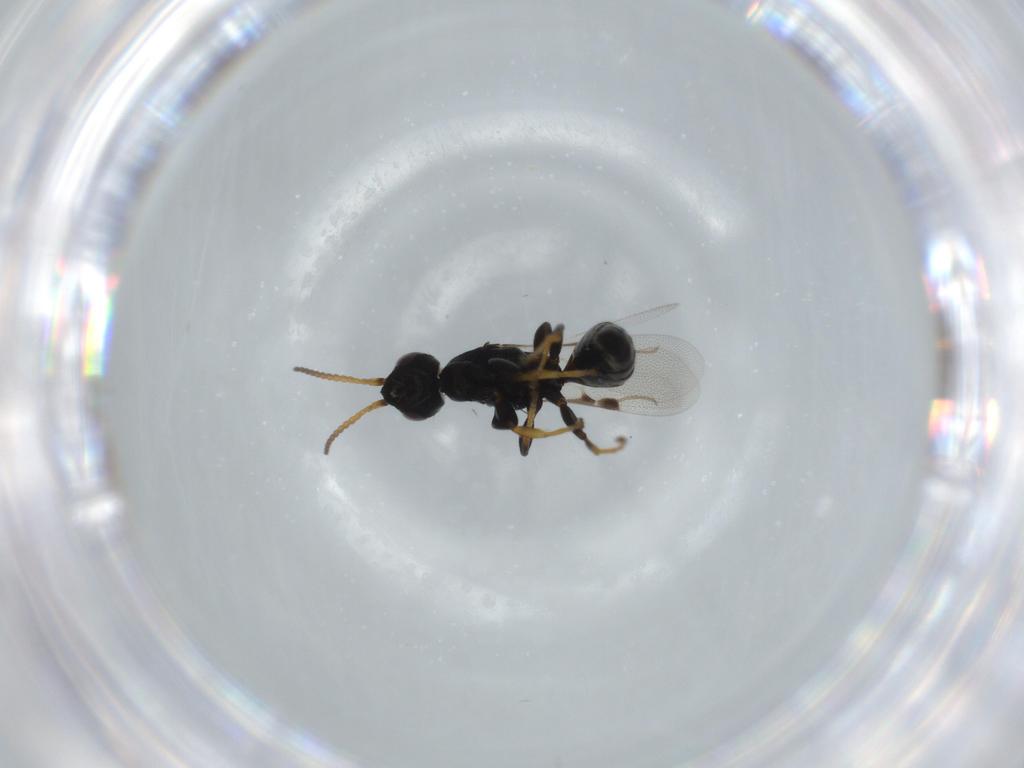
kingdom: Animalia
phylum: Arthropoda
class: Insecta
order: Hymenoptera
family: Bethylidae
